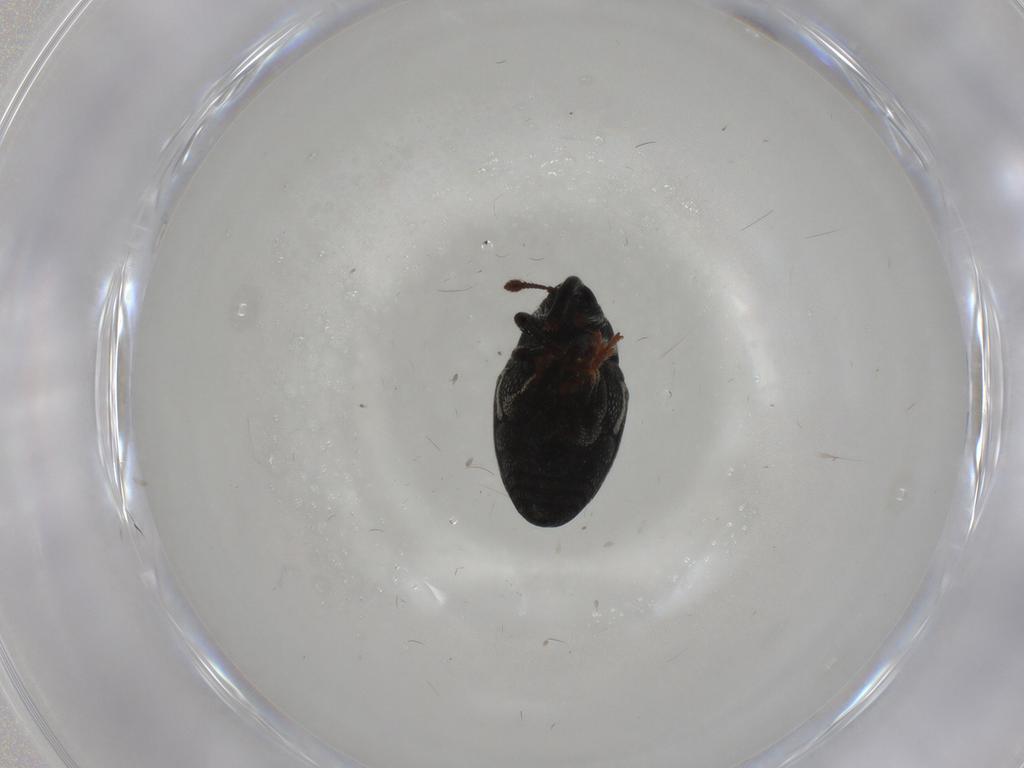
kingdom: Animalia
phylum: Arthropoda
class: Insecta
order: Coleoptera
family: Curculionidae
